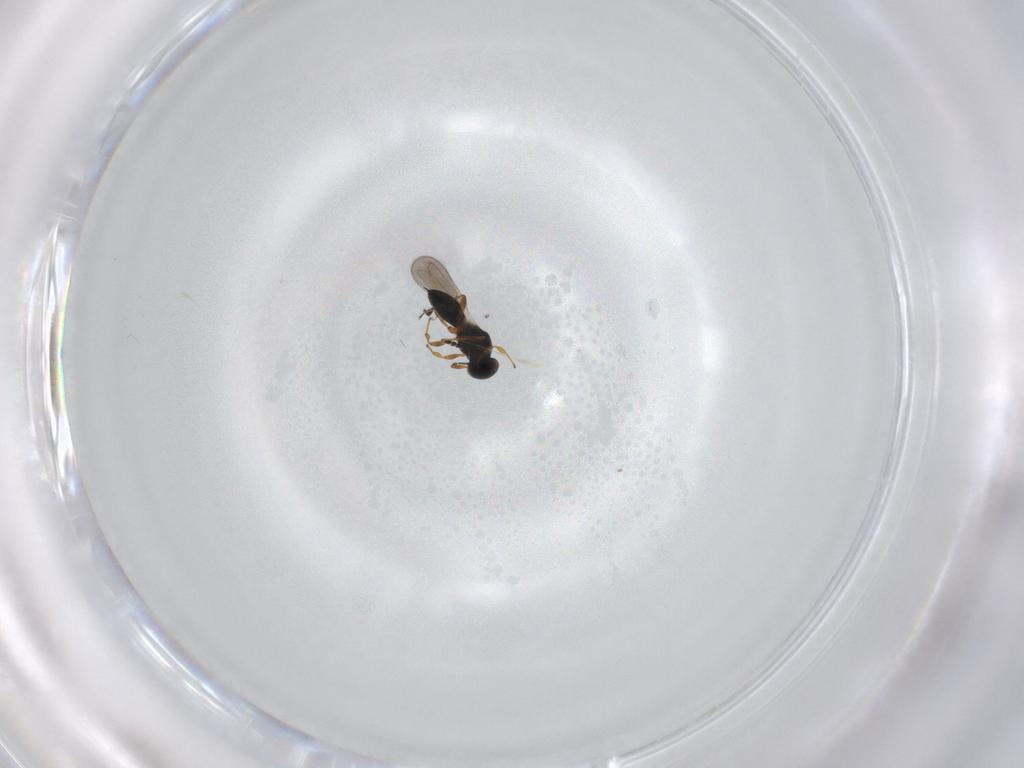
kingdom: Animalia
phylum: Arthropoda
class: Insecta
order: Hymenoptera
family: Platygastridae
